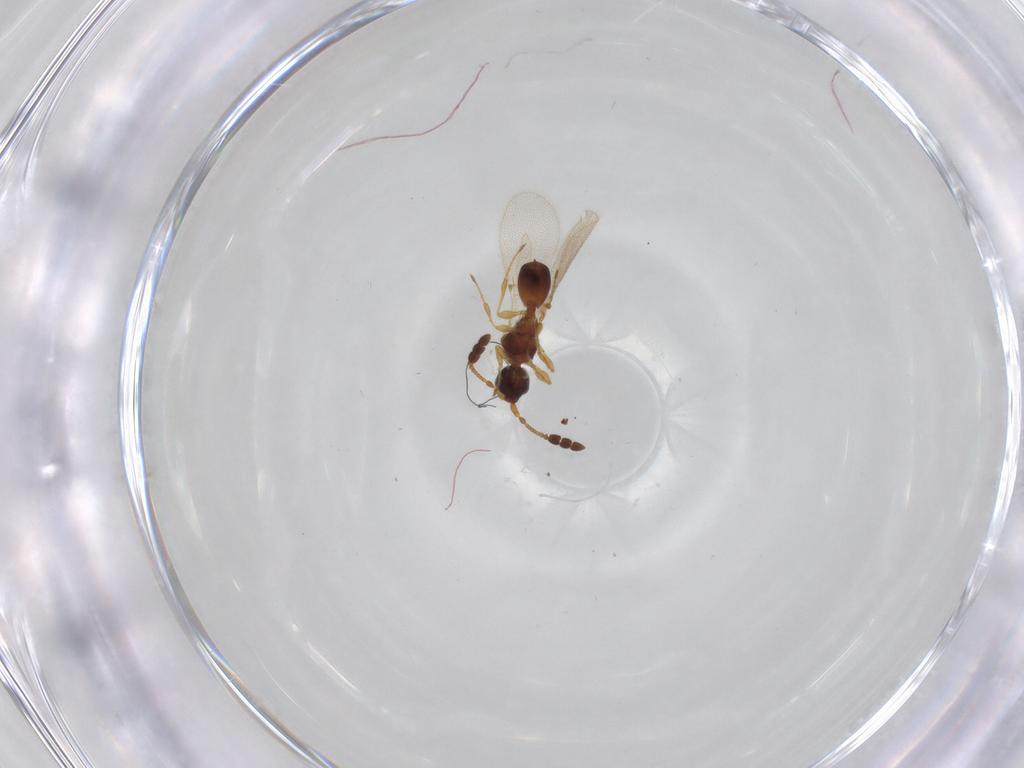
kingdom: Animalia
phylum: Arthropoda
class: Insecta
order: Hymenoptera
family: Diapriidae
